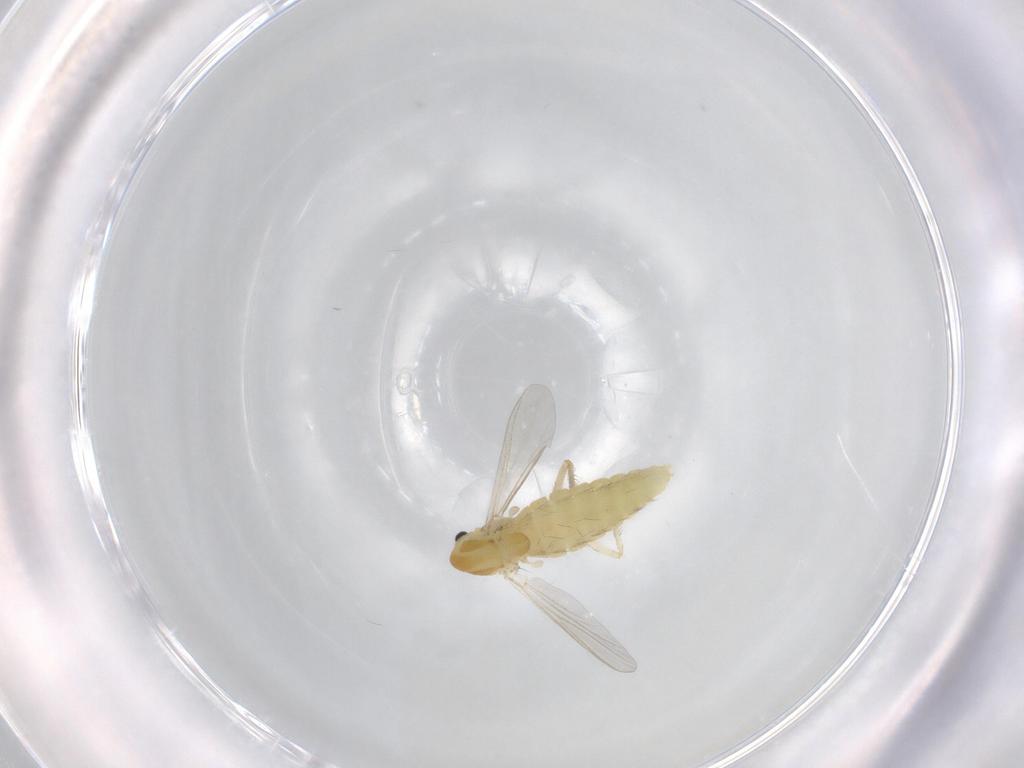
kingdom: Animalia
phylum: Arthropoda
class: Insecta
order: Diptera
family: Chironomidae
